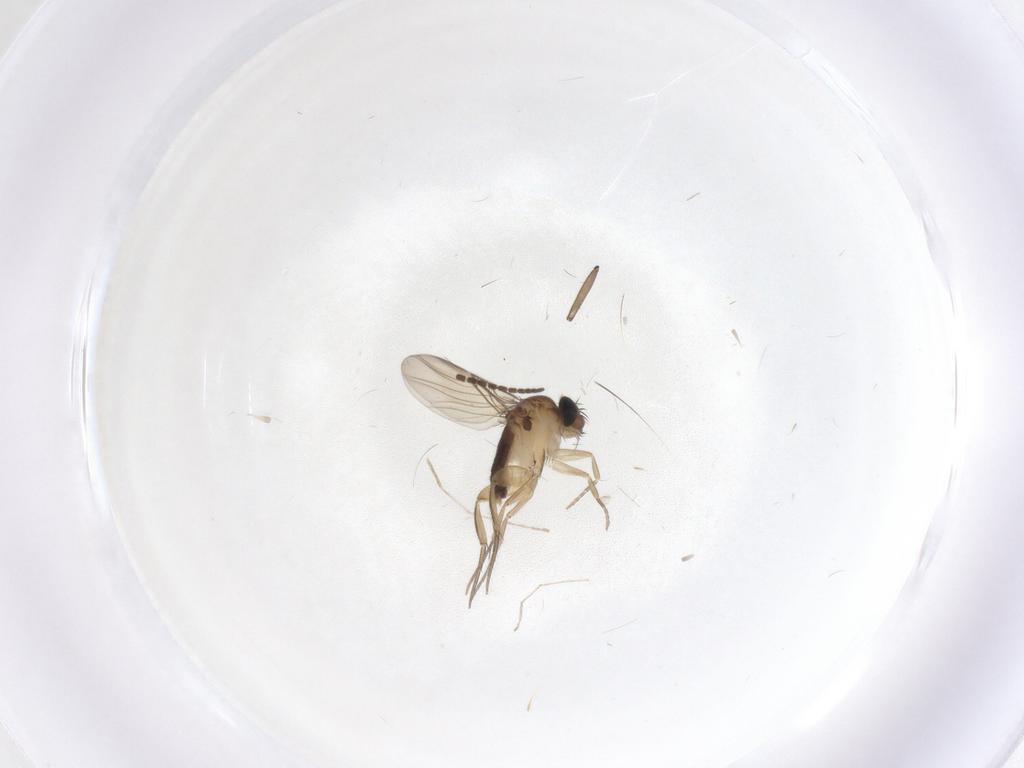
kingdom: Animalia
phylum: Arthropoda
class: Insecta
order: Diptera
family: Phoridae
